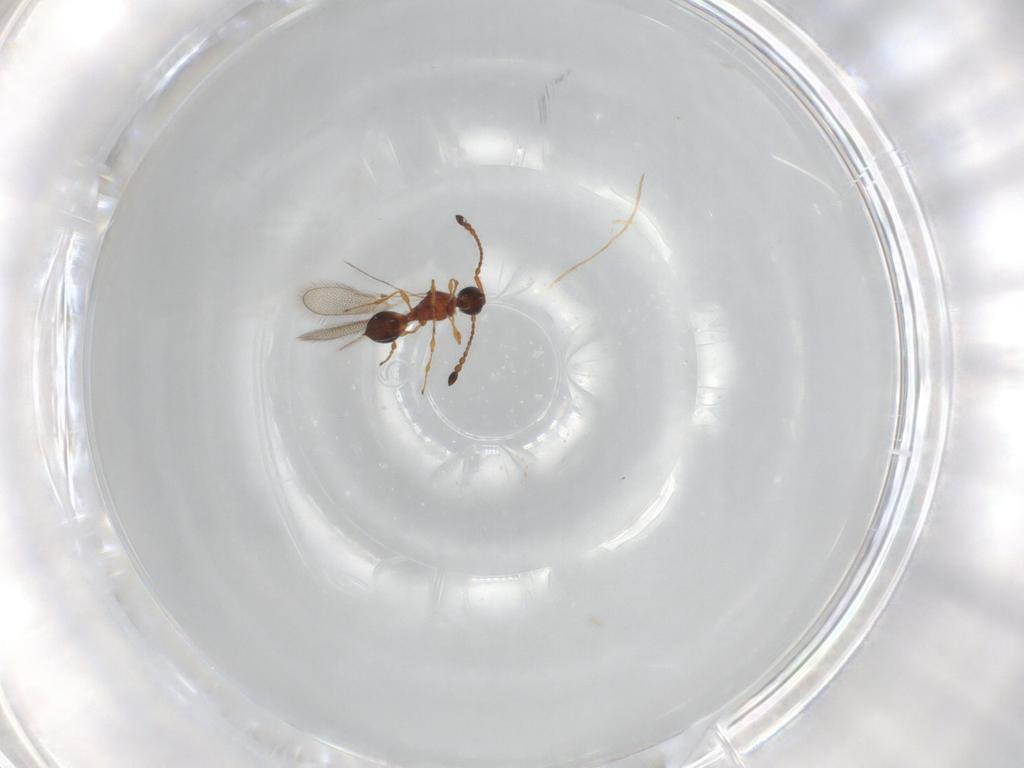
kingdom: Animalia
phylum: Arthropoda
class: Insecta
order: Hymenoptera
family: Diapriidae
